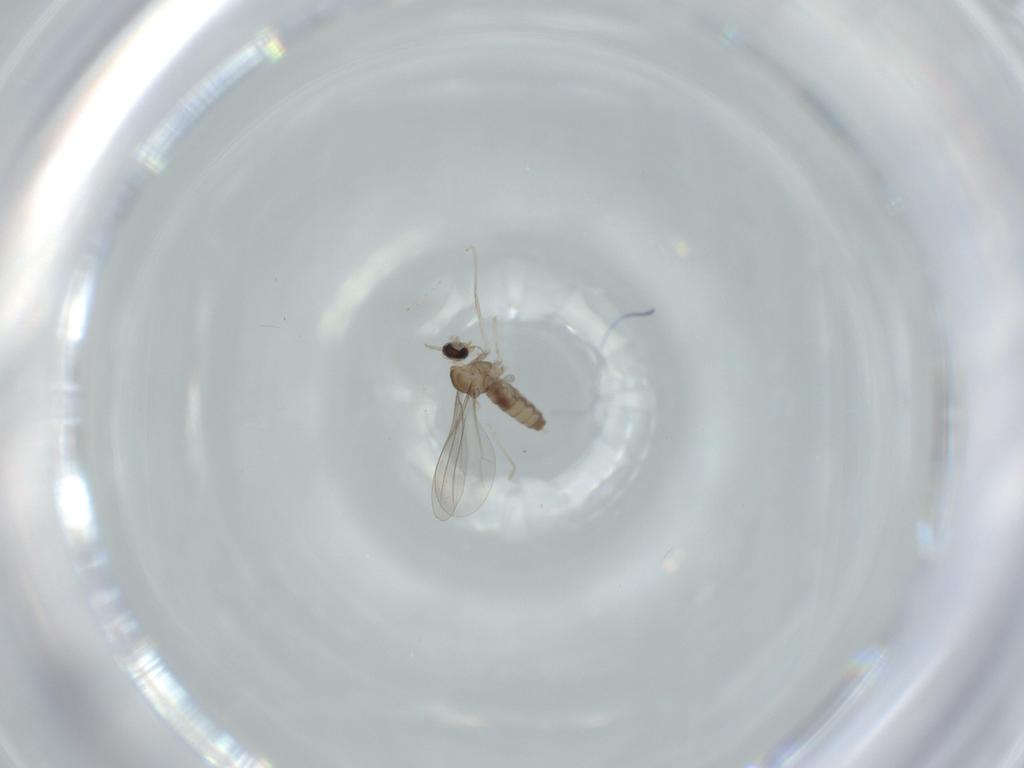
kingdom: Animalia
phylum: Arthropoda
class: Insecta
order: Diptera
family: Cecidomyiidae
